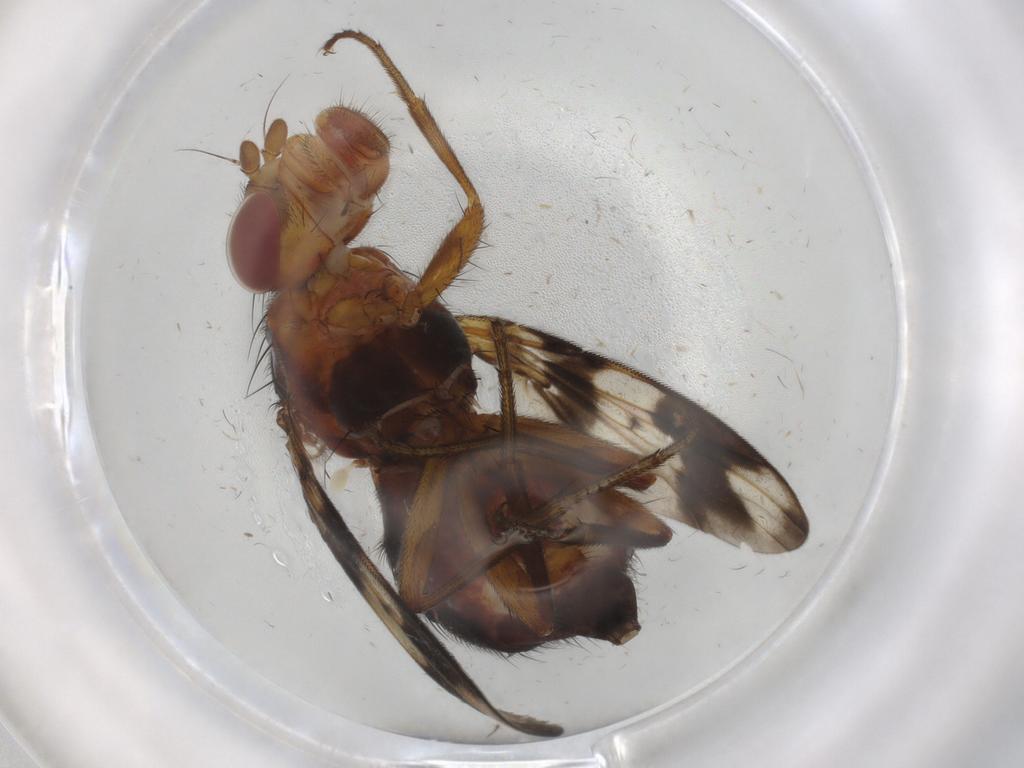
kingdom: Animalia
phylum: Arthropoda
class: Insecta
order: Diptera
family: Richardiidae
